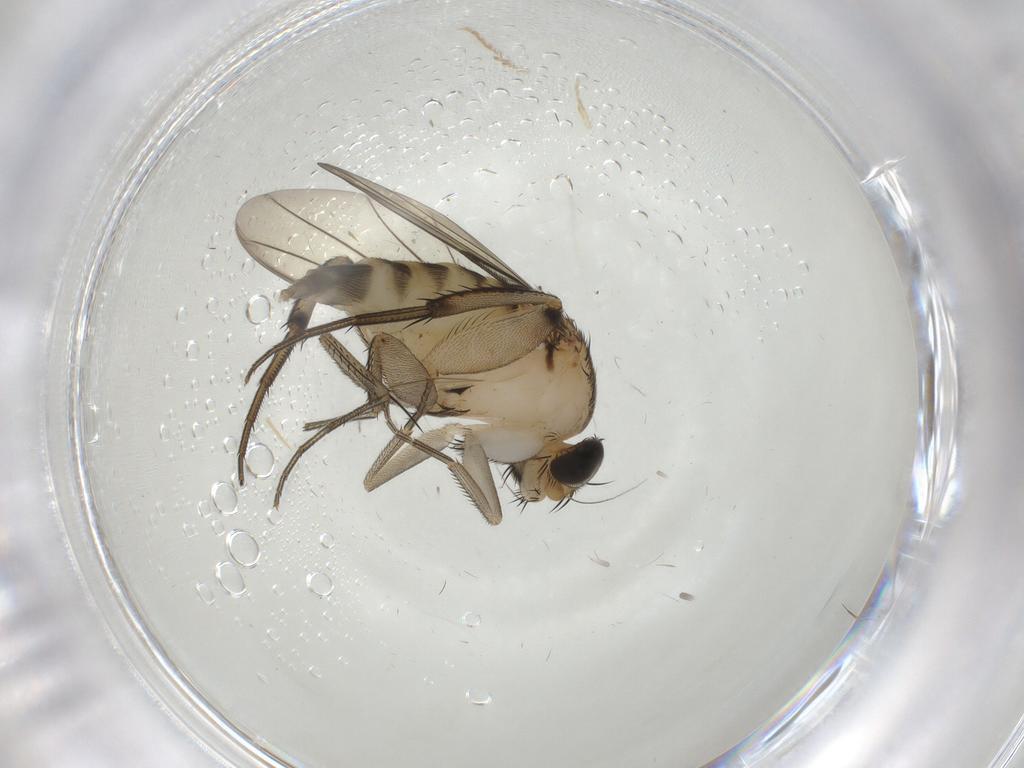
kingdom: Animalia
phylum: Arthropoda
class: Insecta
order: Diptera
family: Phoridae
